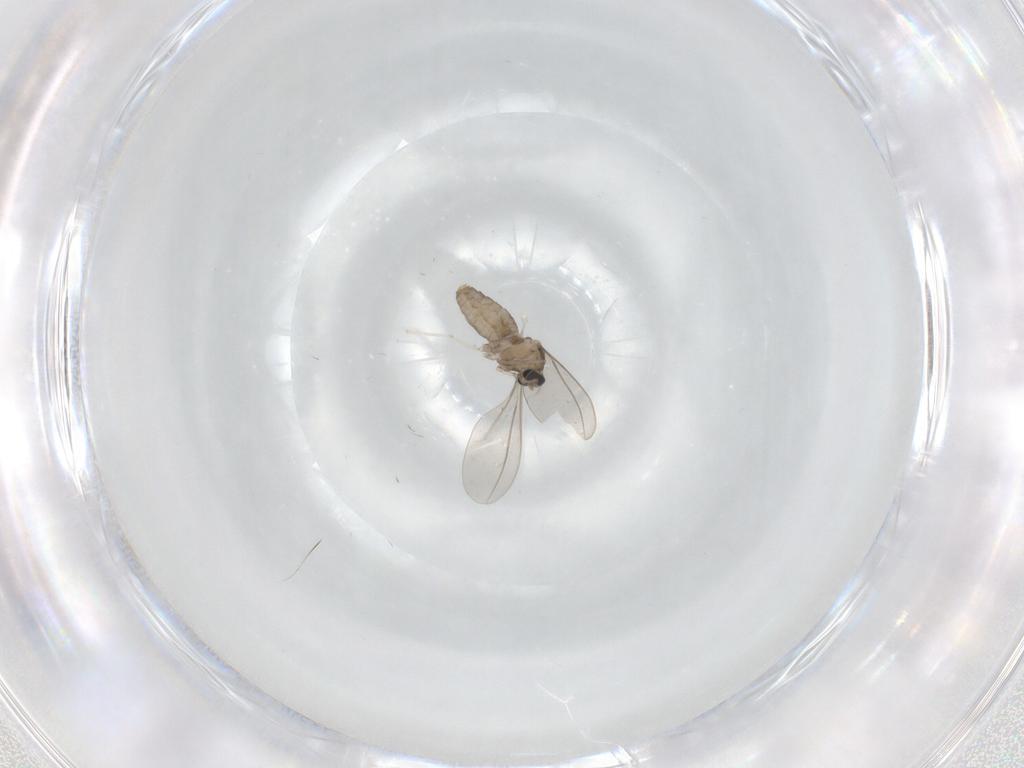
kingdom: Animalia
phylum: Arthropoda
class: Insecta
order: Diptera
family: Cecidomyiidae
